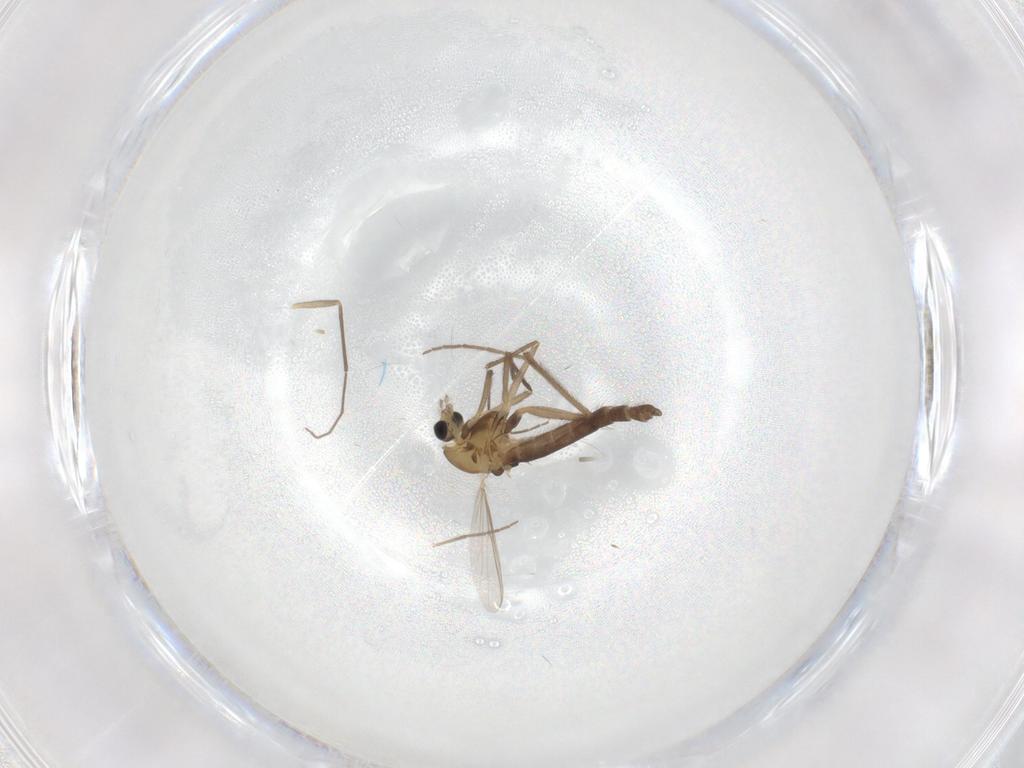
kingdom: Animalia
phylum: Arthropoda
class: Insecta
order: Diptera
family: Chironomidae
